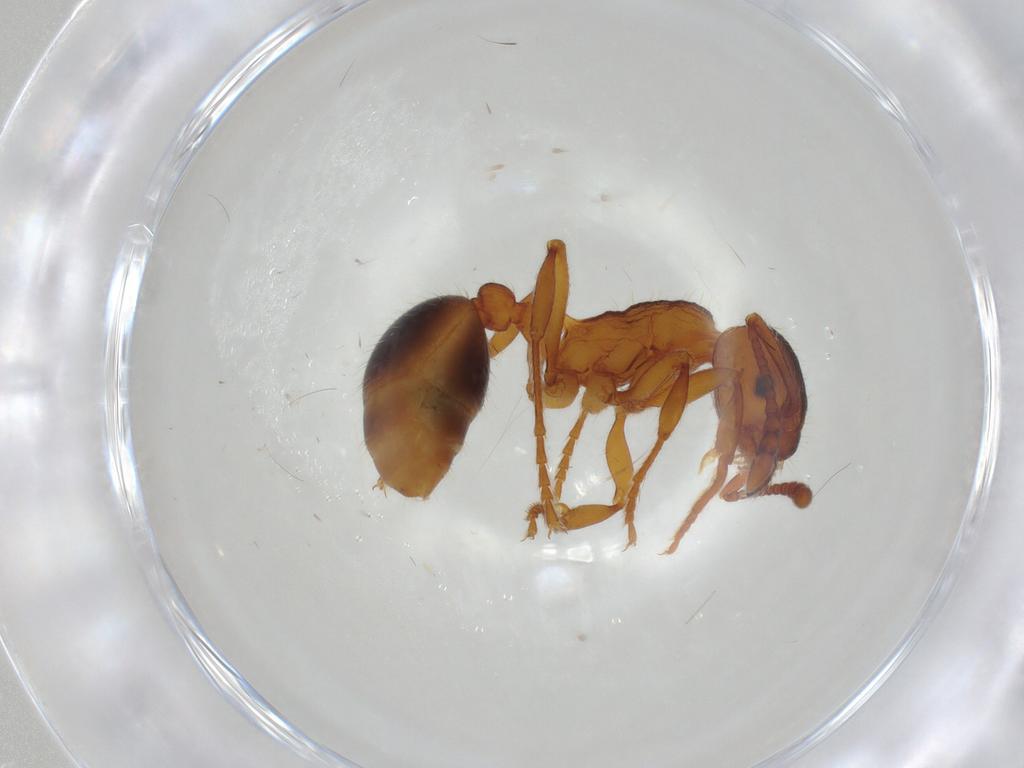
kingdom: Animalia
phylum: Arthropoda
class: Insecta
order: Hymenoptera
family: Formicidae
